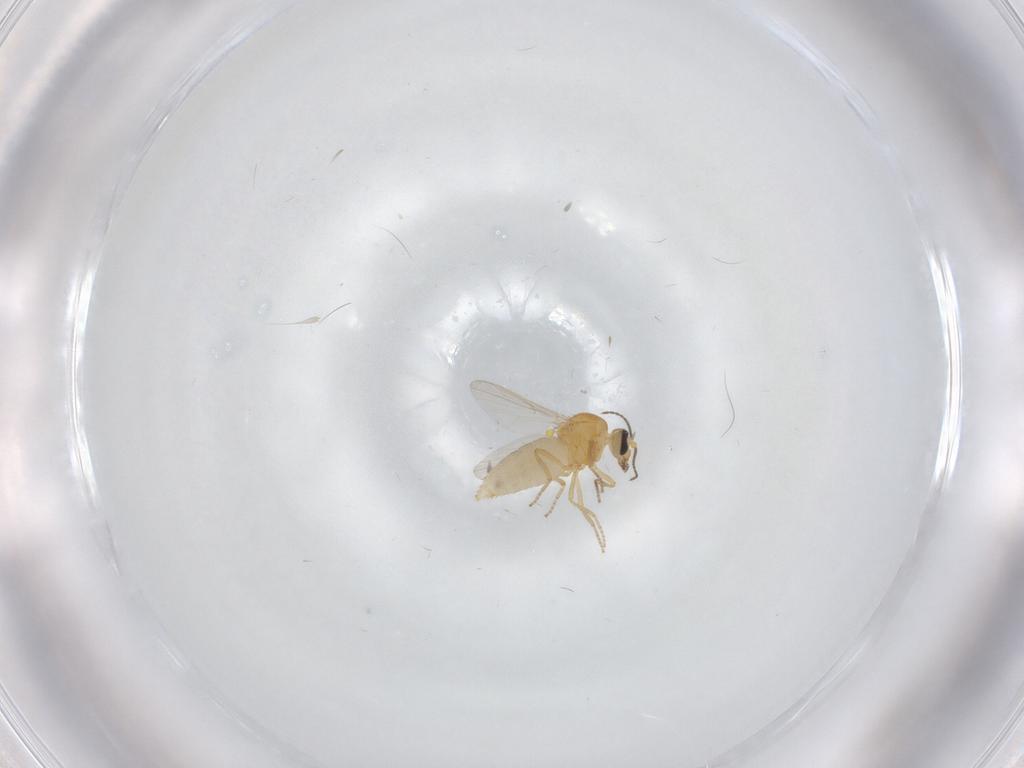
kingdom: Animalia
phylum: Arthropoda
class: Insecta
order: Diptera
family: Ceratopogonidae
